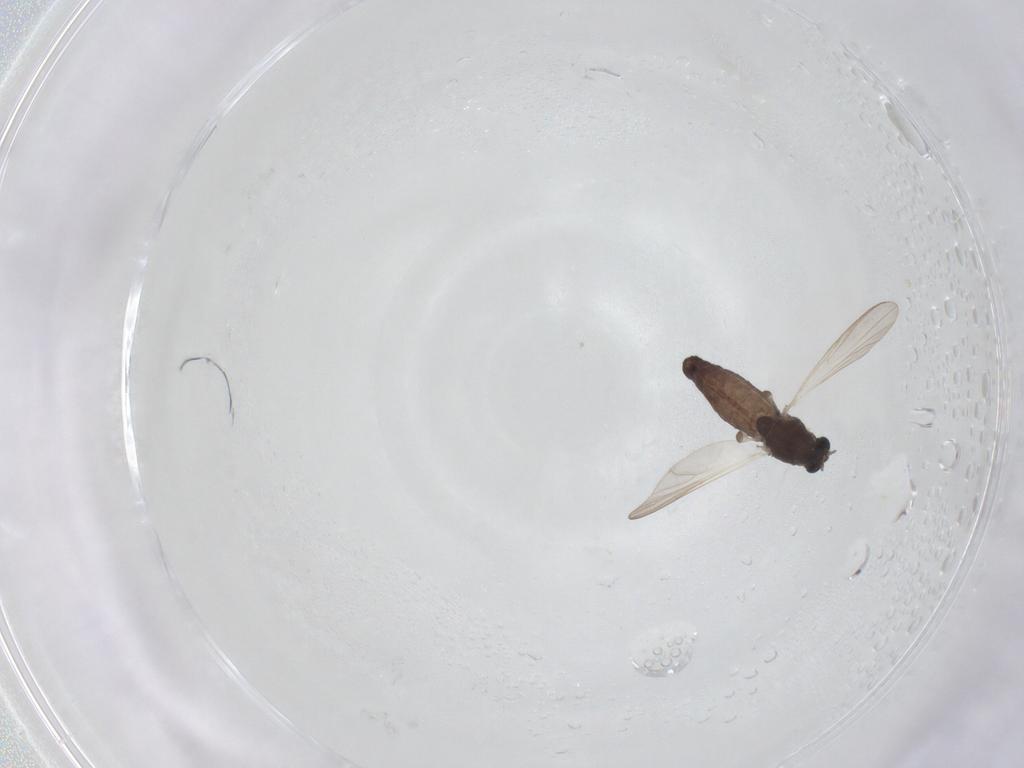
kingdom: Animalia
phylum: Arthropoda
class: Insecta
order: Diptera
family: Chironomidae
